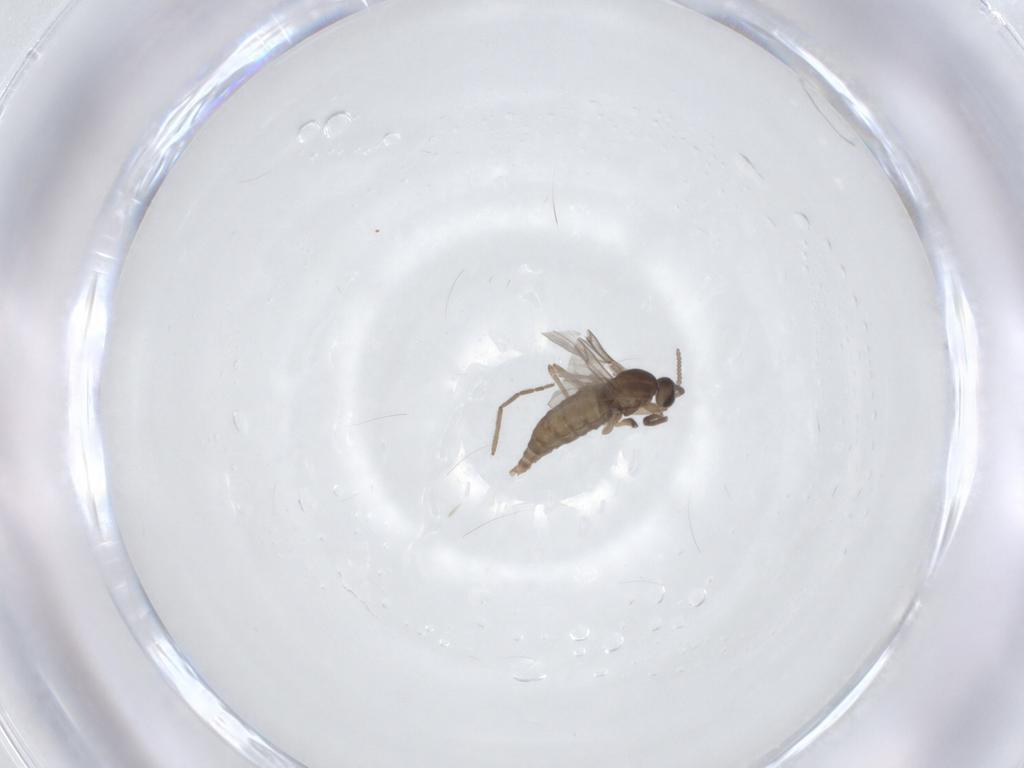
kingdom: Animalia
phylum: Arthropoda
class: Insecta
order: Diptera
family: Cecidomyiidae
